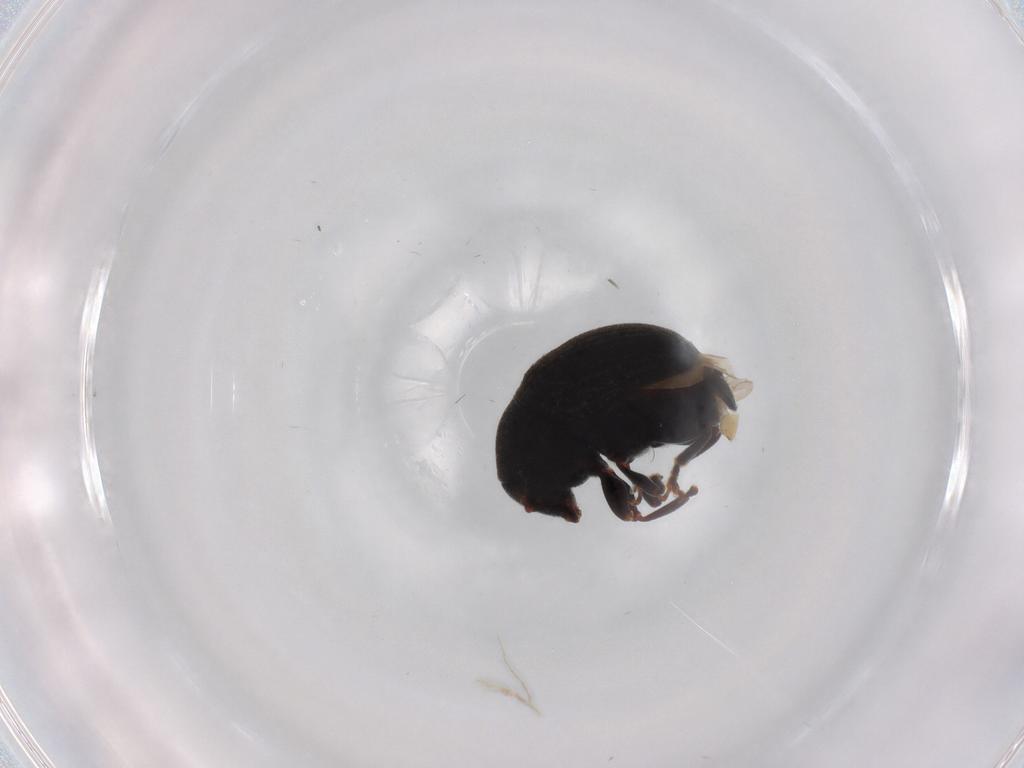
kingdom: Animalia
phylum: Arthropoda
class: Insecta
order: Coleoptera
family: Anthribidae
